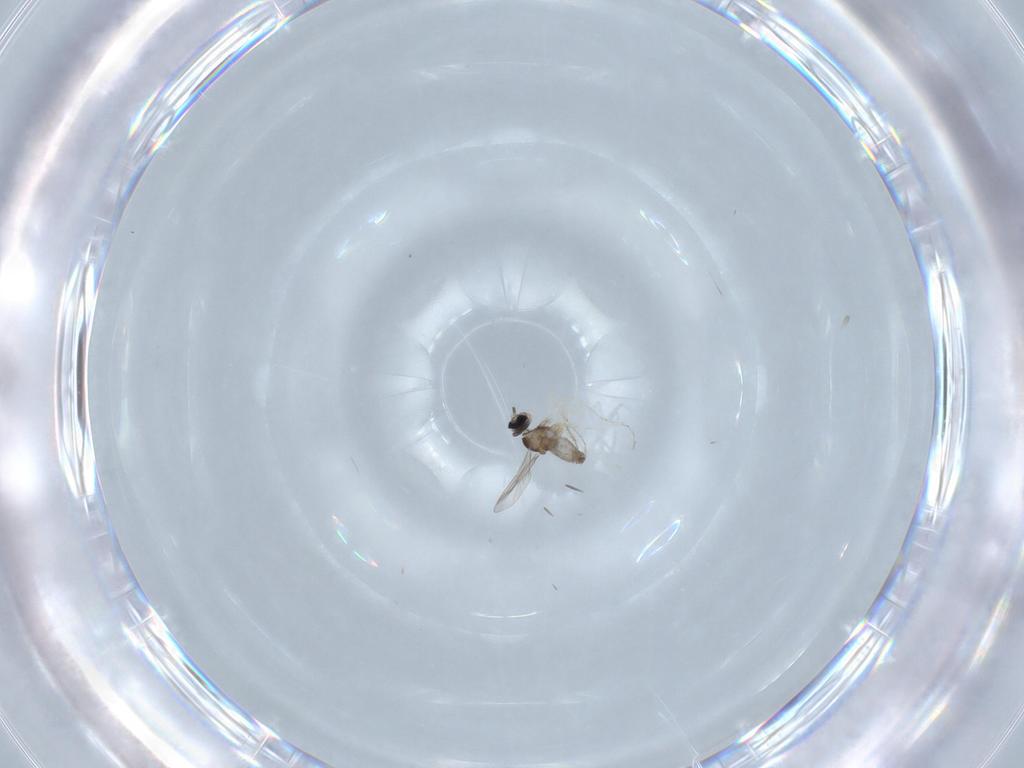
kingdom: Animalia
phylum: Arthropoda
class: Insecta
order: Diptera
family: Cecidomyiidae
